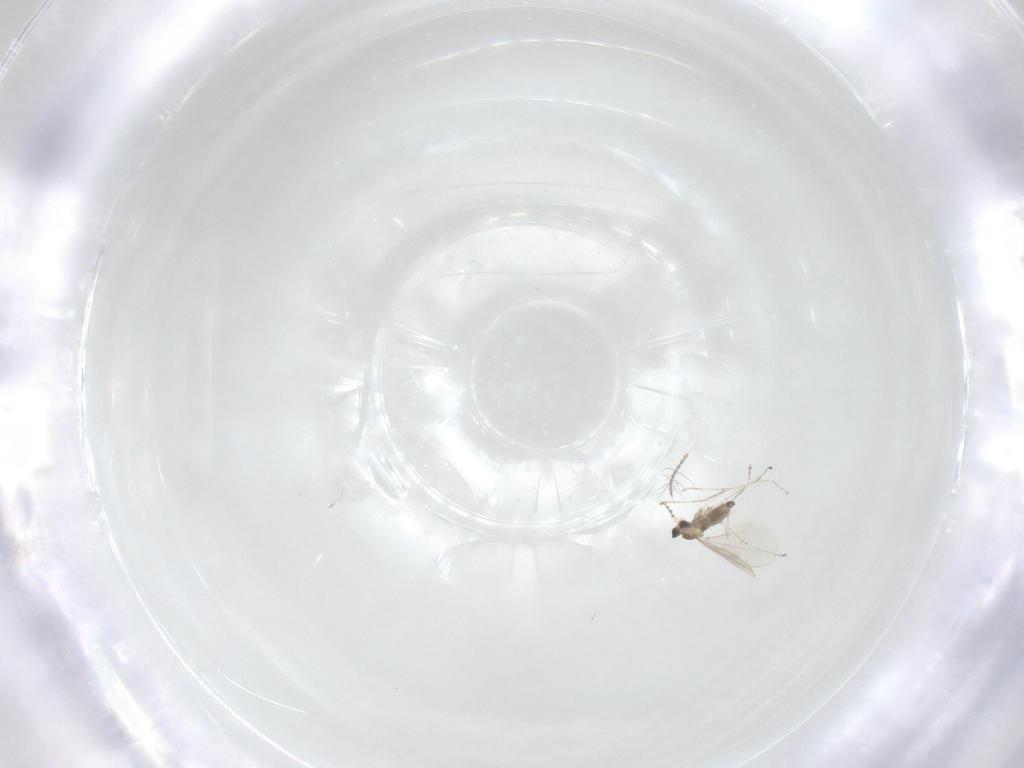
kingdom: Animalia
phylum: Arthropoda
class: Insecta
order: Diptera
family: Cecidomyiidae
